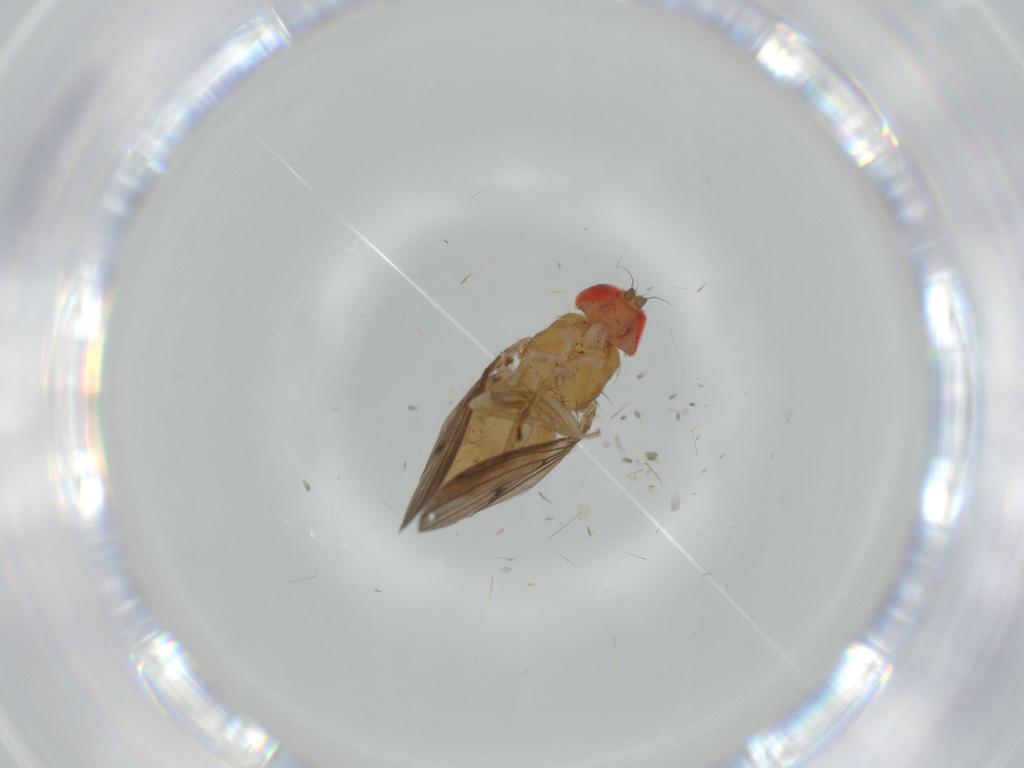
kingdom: Animalia
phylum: Arthropoda
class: Insecta
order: Diptera
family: Drosophilidae
